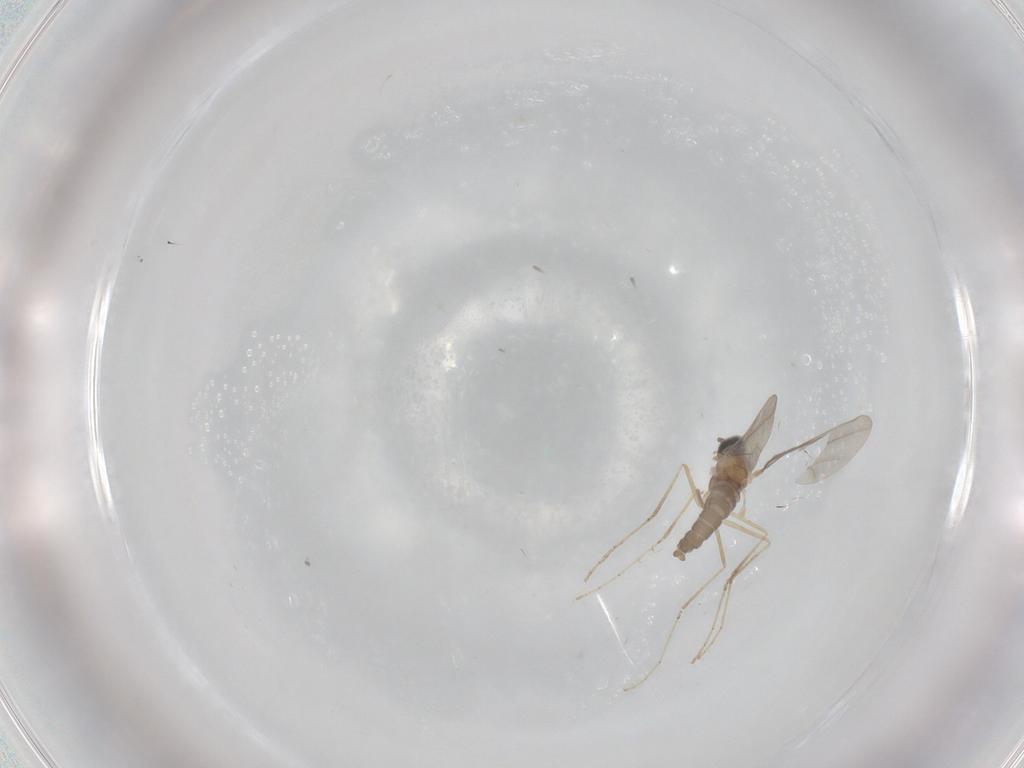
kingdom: Animalia
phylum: Arthropoda
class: Insecta
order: Diptera
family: Cecidomyiidae
